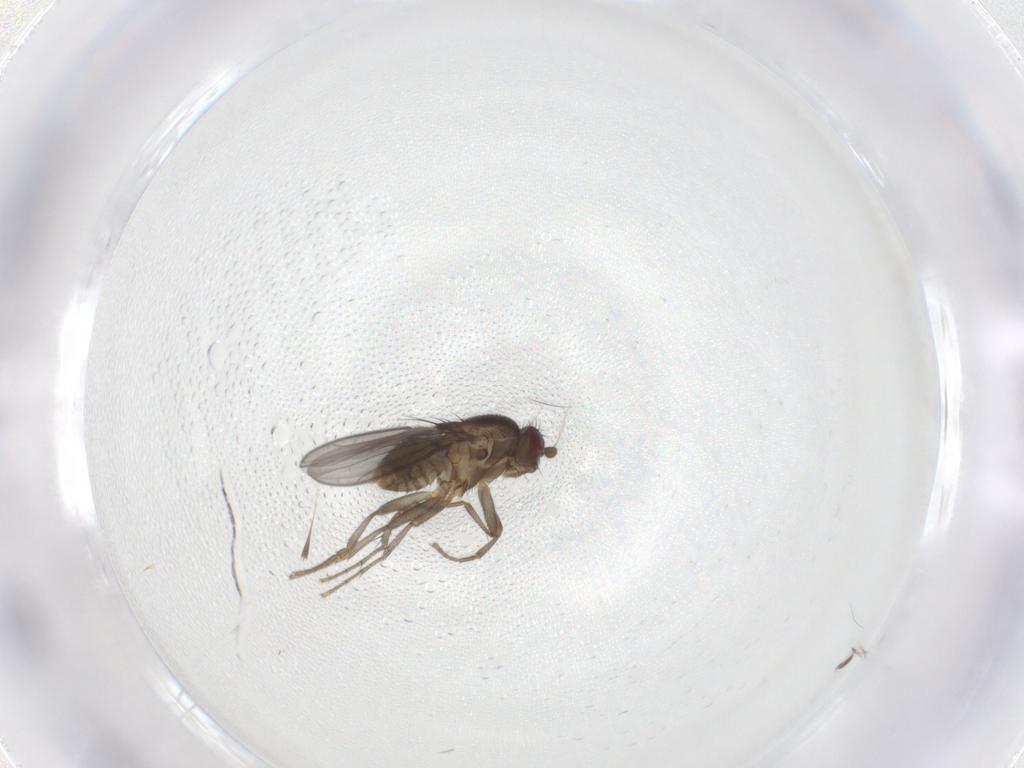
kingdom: Animalia
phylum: Arthropoda
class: Insecta
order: Diptera
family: Sphaeroceridae
